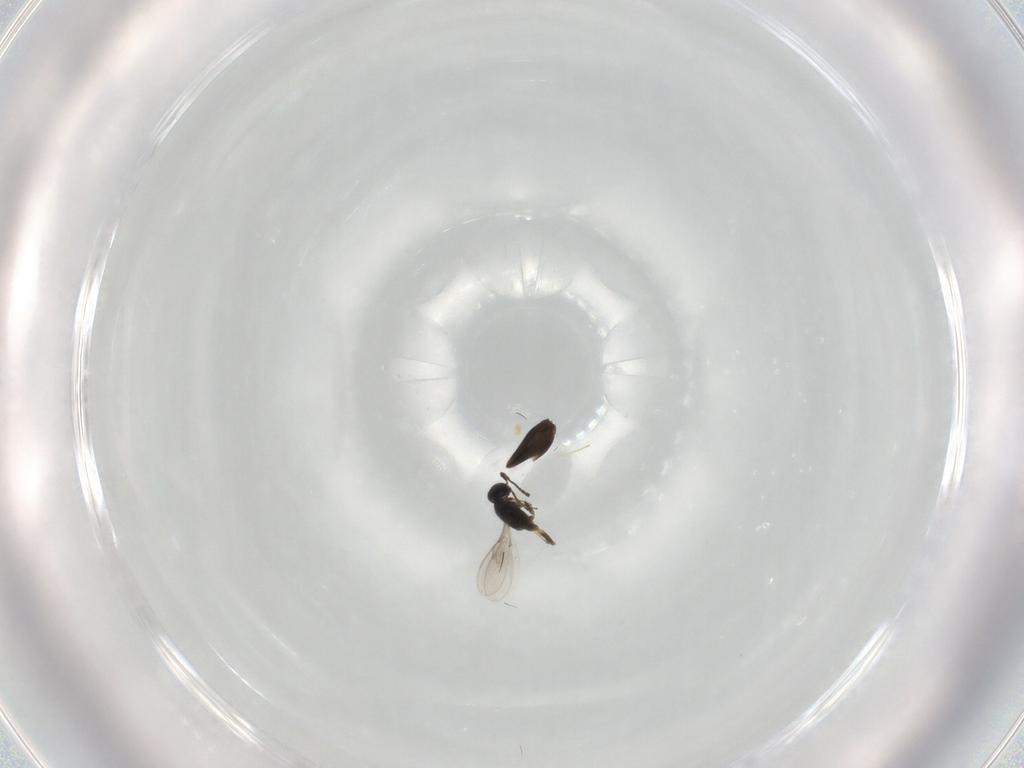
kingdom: Animalia
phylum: Arthropoda
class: Insecta
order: Hymenoptera
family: Scelionidae
